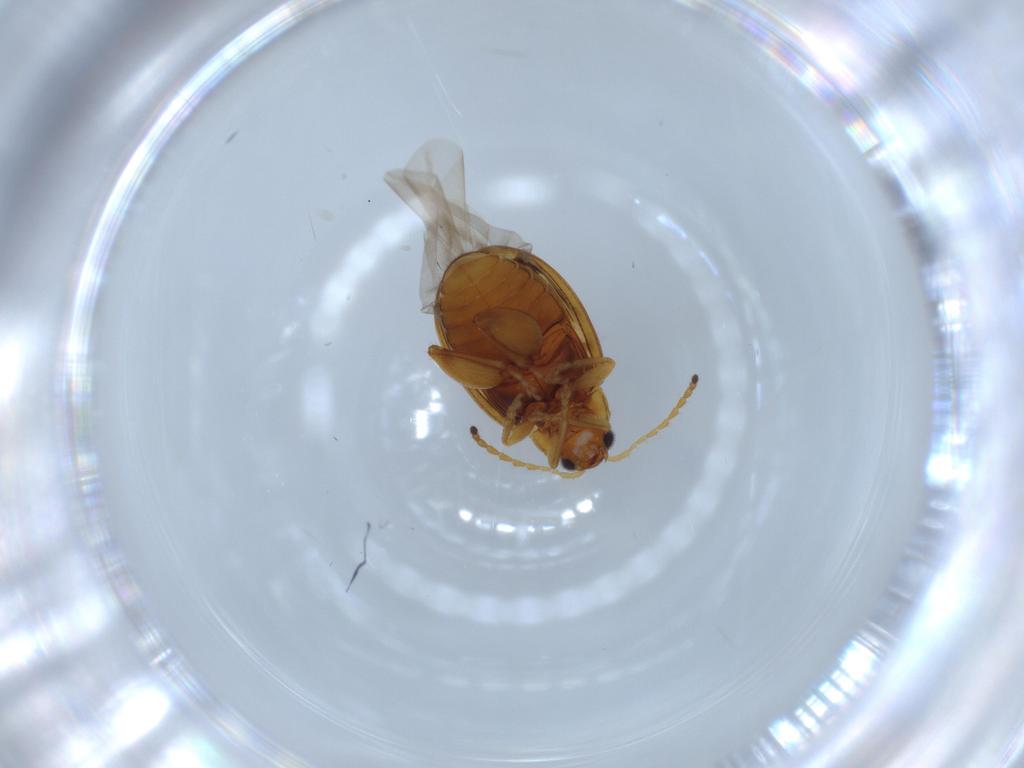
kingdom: Animalia
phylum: Arthropoda
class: Insecta
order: Coleoptera
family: Chrysomelidae
